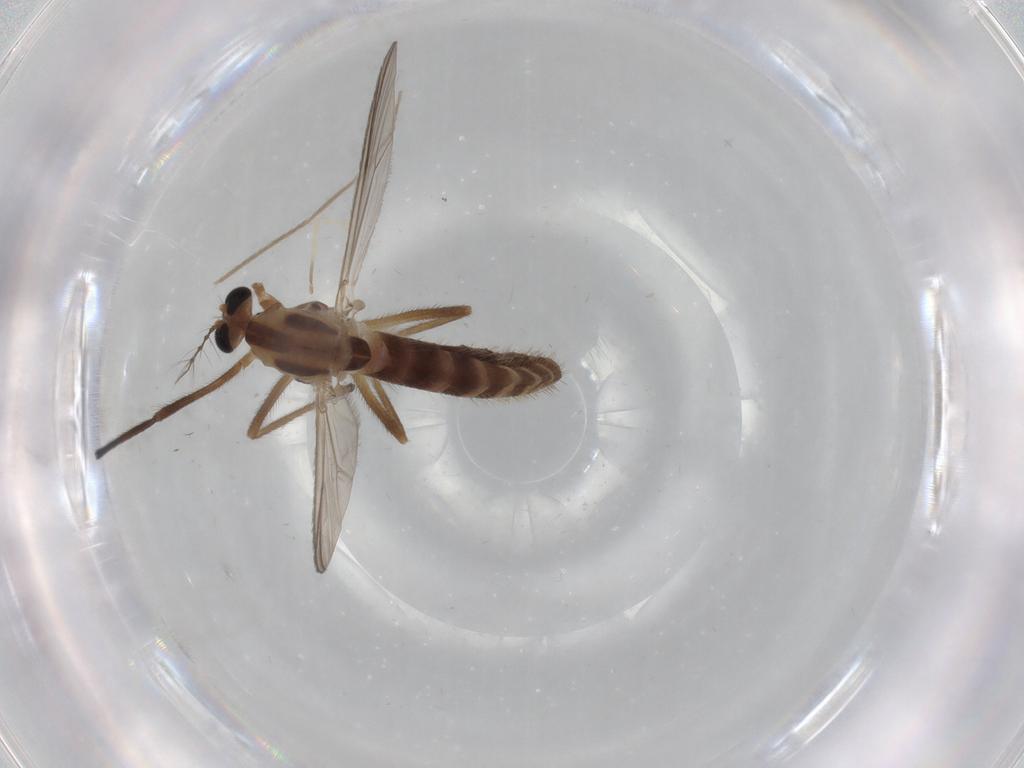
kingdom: Animalia
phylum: Arthropoda
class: Insecta
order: Diptera
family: Chironomidae
